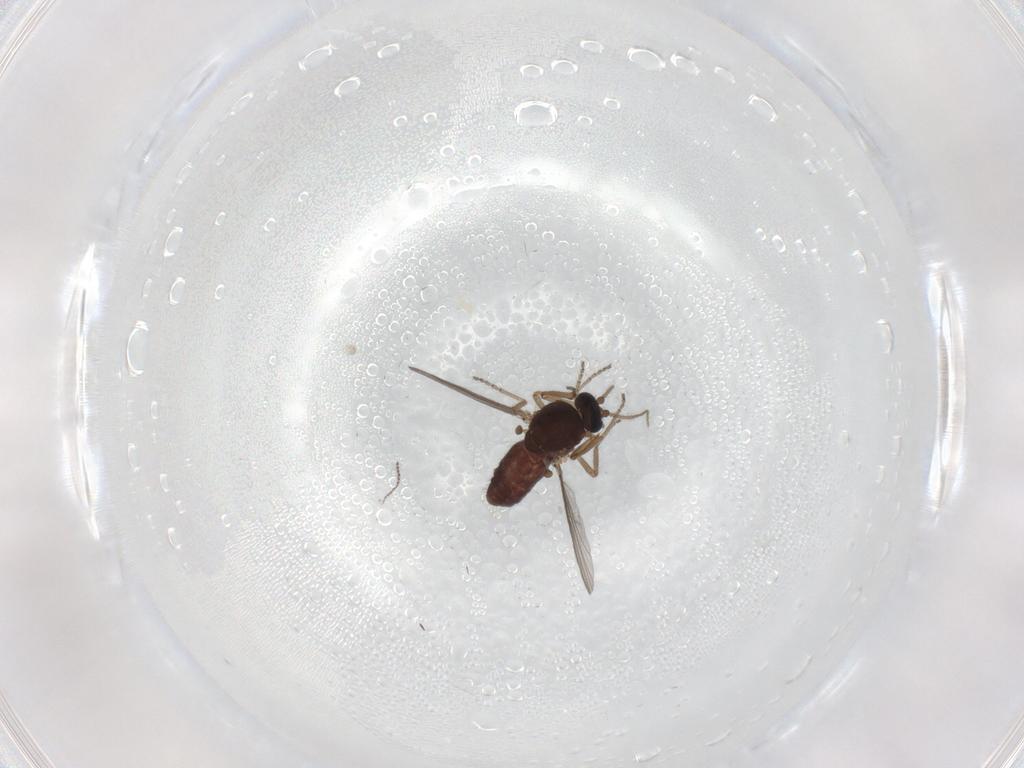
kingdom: Animalia
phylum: Arthropoda
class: Insecta
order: Diptera
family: Ceratopogonidae
